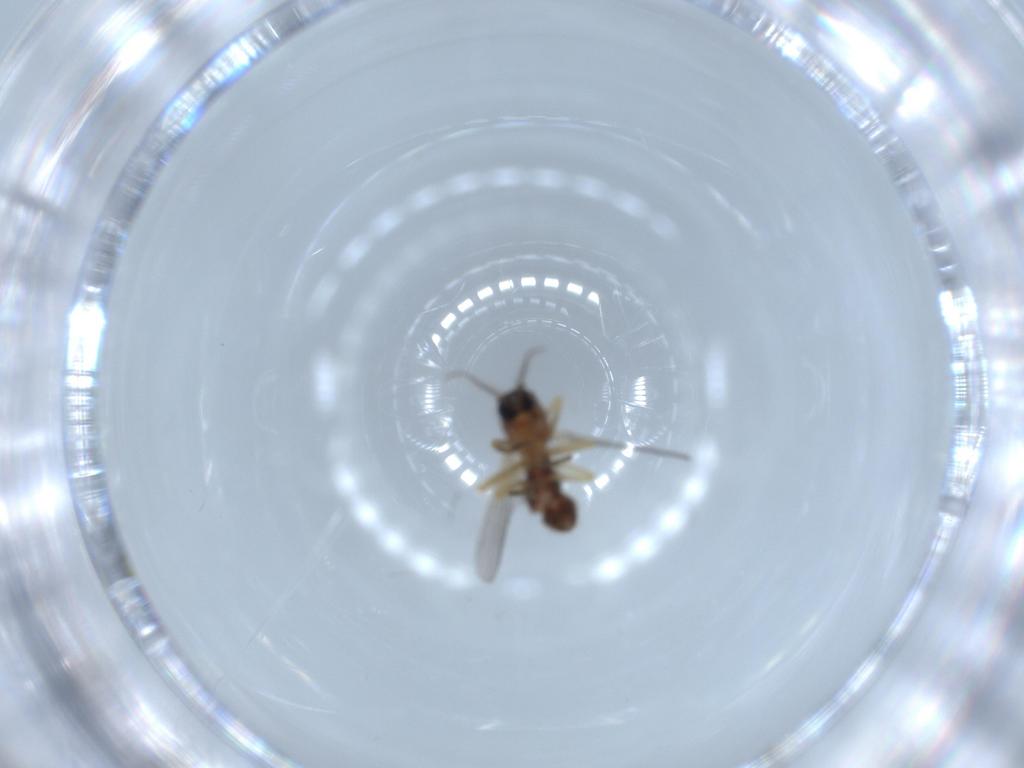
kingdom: Animalia
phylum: Arthropoda
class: Insecta
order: Diptera
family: Ceratopogonidae
